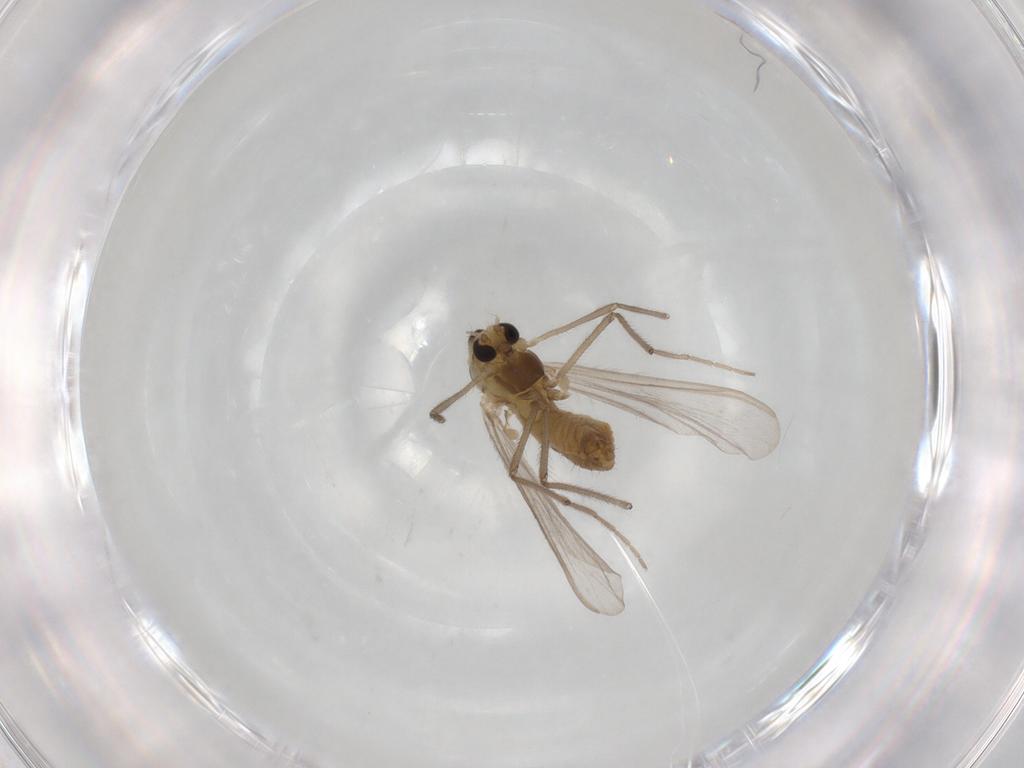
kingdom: Animalia
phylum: Arthropoda
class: Insecta
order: Diptera
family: Chironomidae
